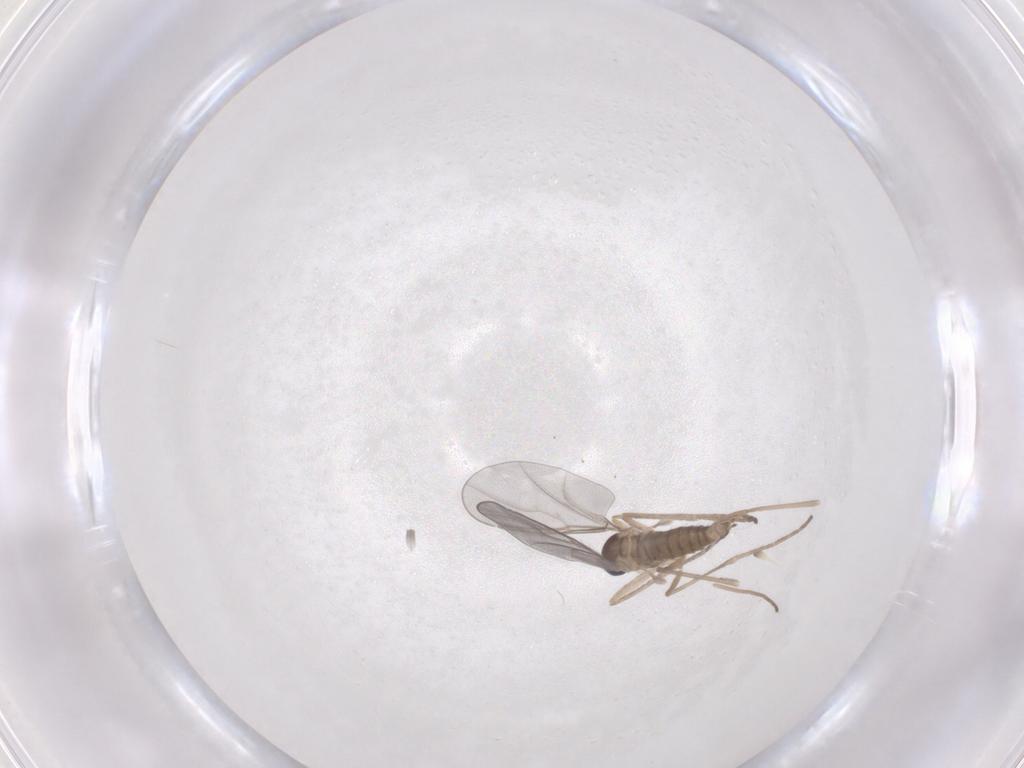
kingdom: Animalia
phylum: Arthropoda
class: Insecta
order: Diptera
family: Cecidomyiidae
